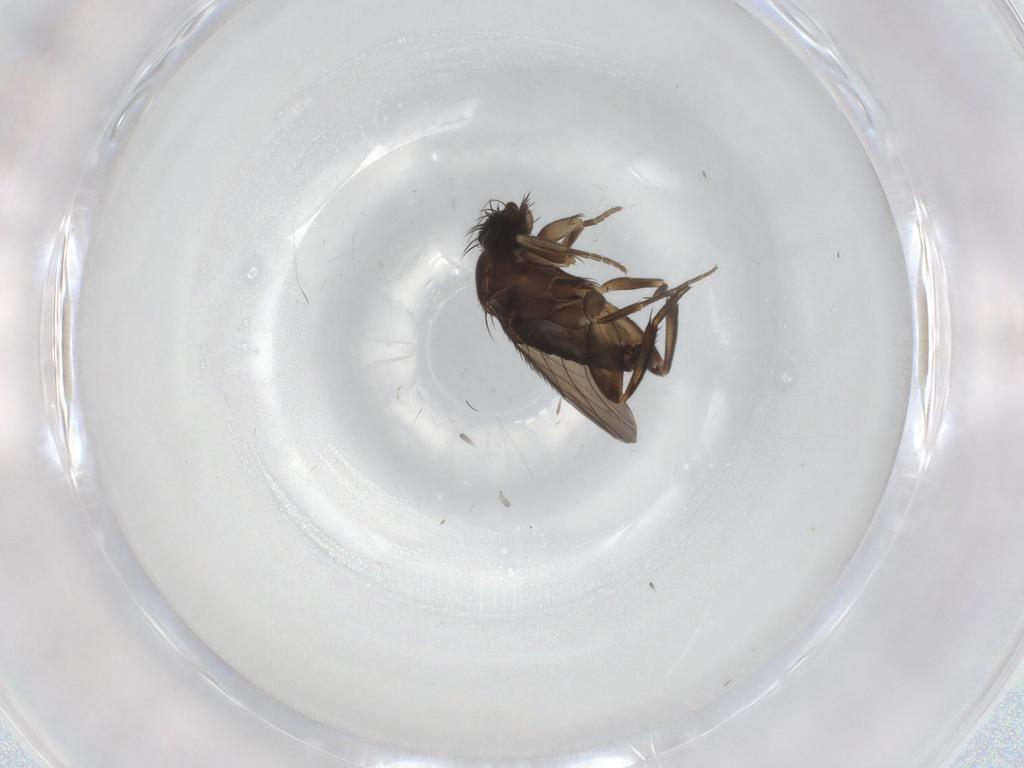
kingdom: Animalia
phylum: Arthropoda
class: Insecta
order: Diptera
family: Phoridae
